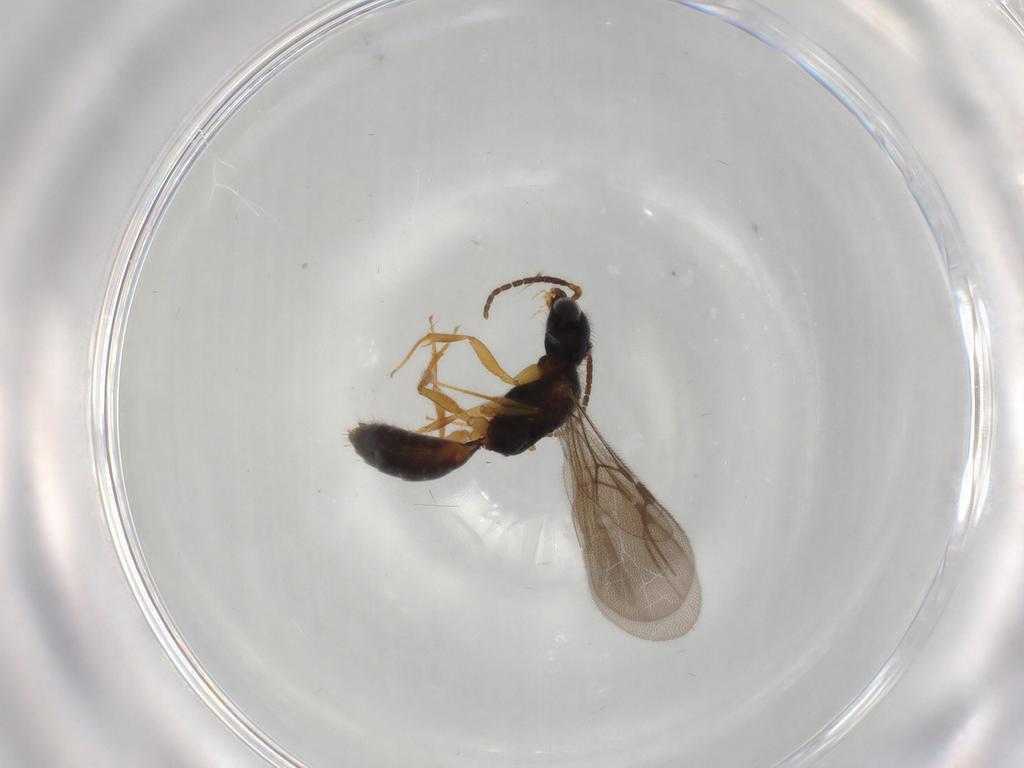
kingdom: Animalia
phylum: Arthropoda
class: Insecta
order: Hymenoptera
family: Bethylidae
